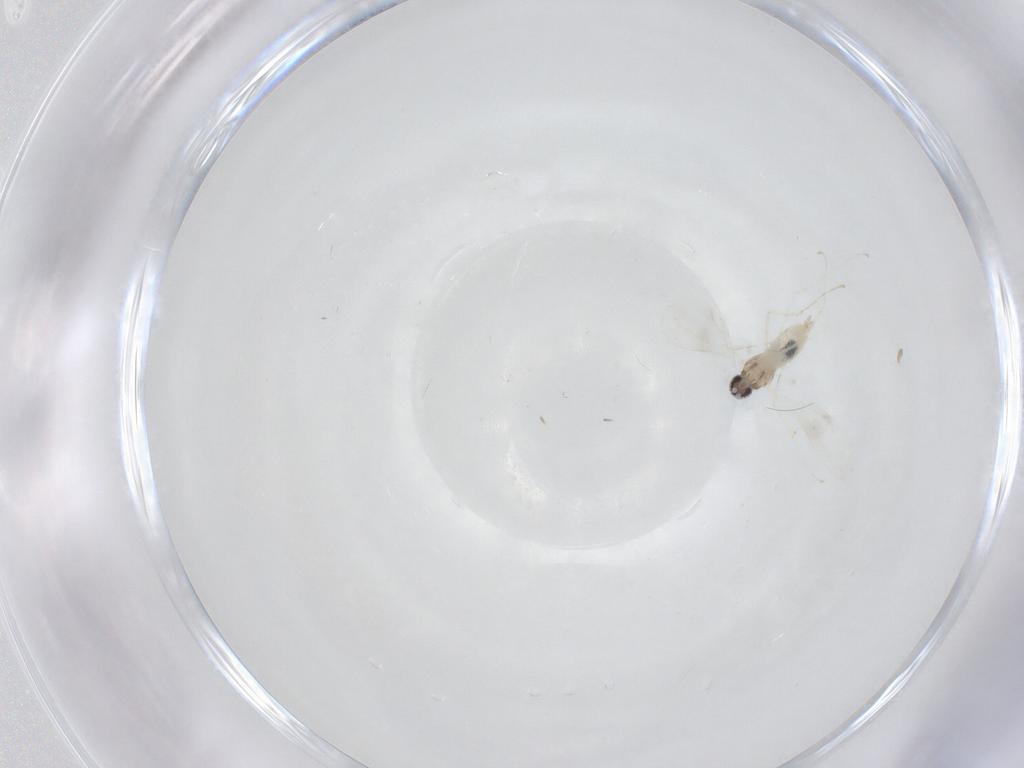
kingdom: Animalia
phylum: Arthropoda
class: Insecta
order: Diptera
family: Cecidomyiidae
